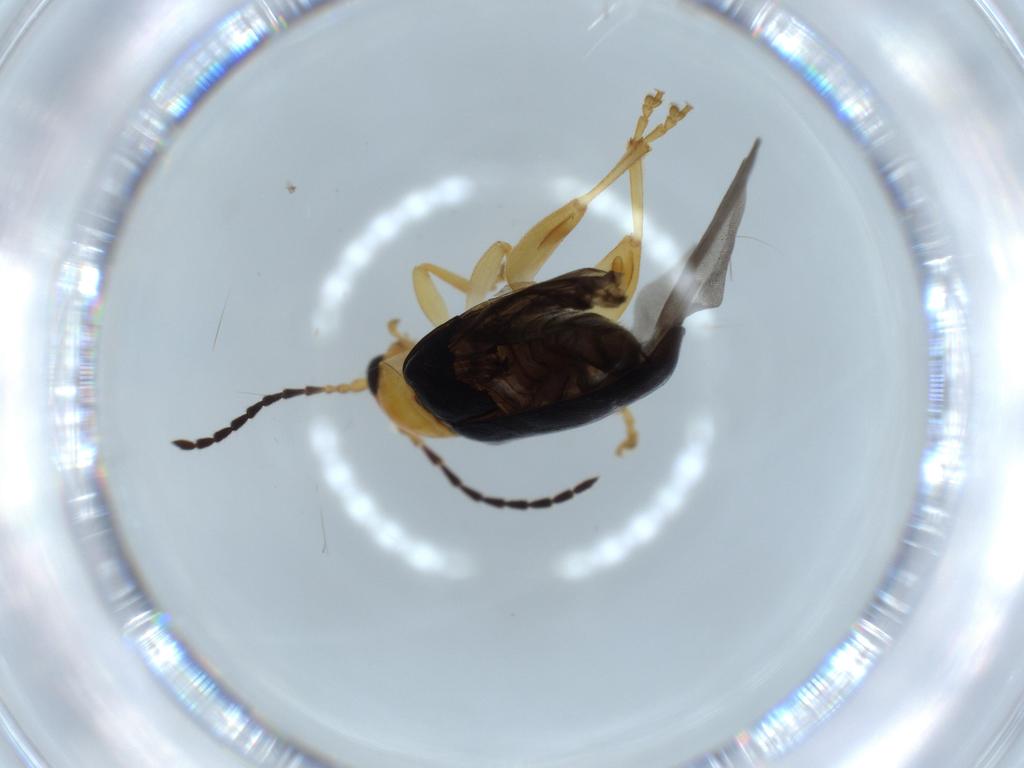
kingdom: Animalia
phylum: Arthropoda
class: Insecta
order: Coleoptera
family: Chrysomelidae
